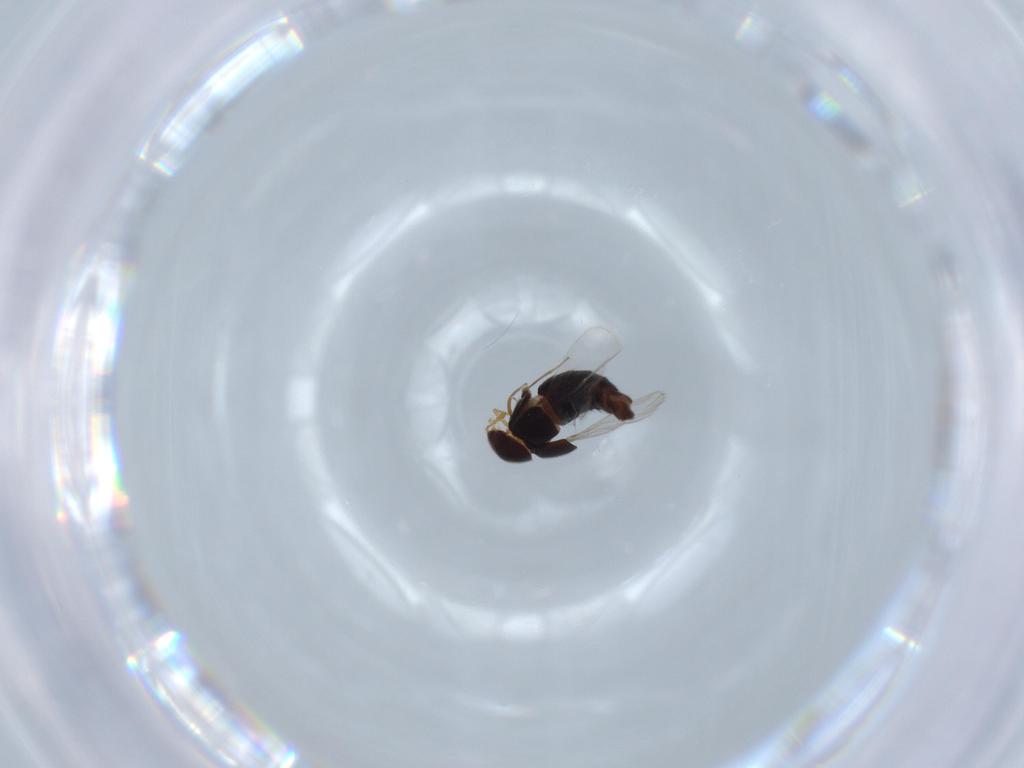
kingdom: Animalia
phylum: Arthropoda
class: Insecta
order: Coleoptera
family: Staphylinidae
